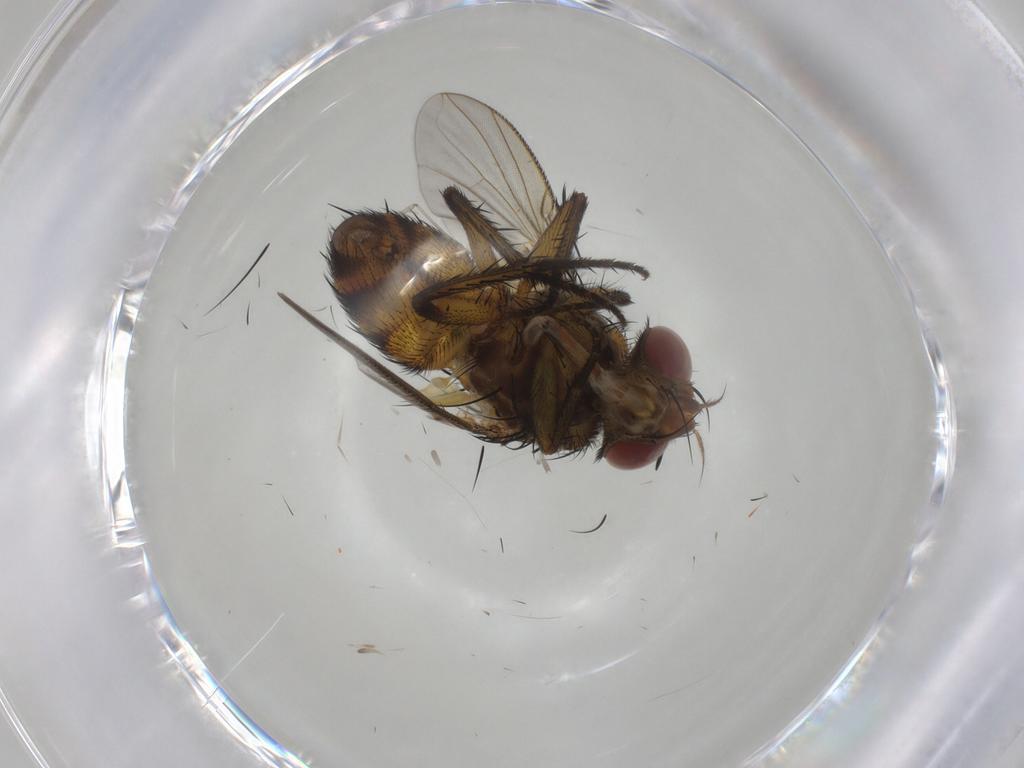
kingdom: Animalia
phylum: Arthropoda
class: Insecta
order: Diptera
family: Tachinidae
